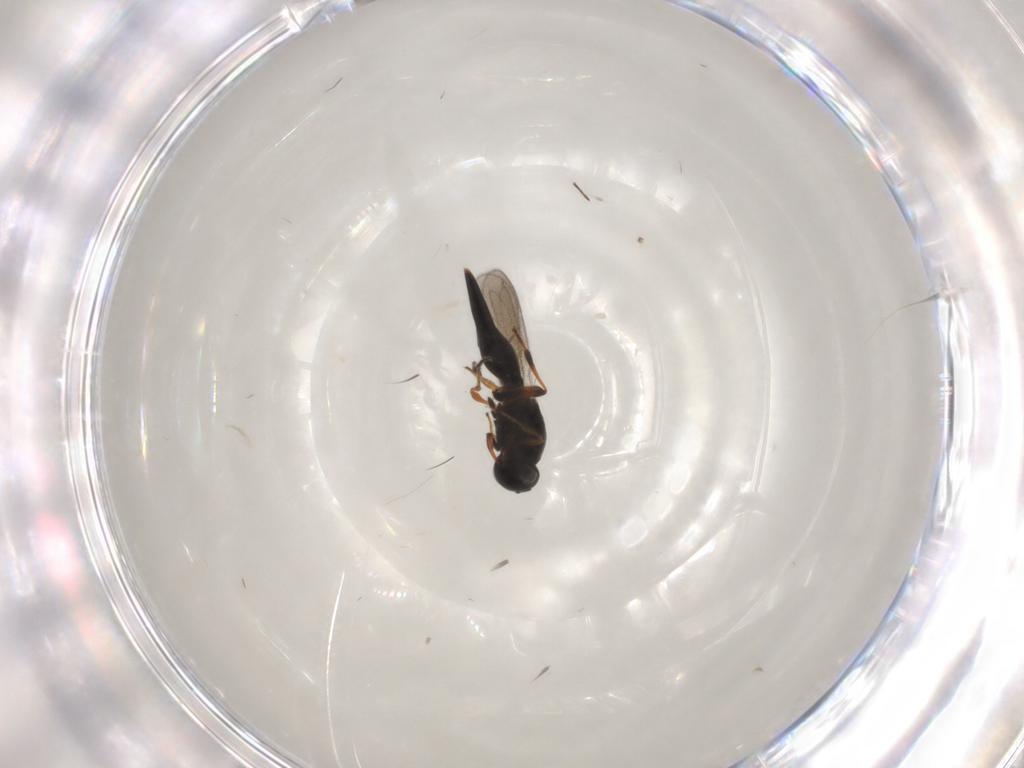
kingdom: Animalia
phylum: Arthropoda
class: Insecta
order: Hymenoptera
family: Platygastridae
